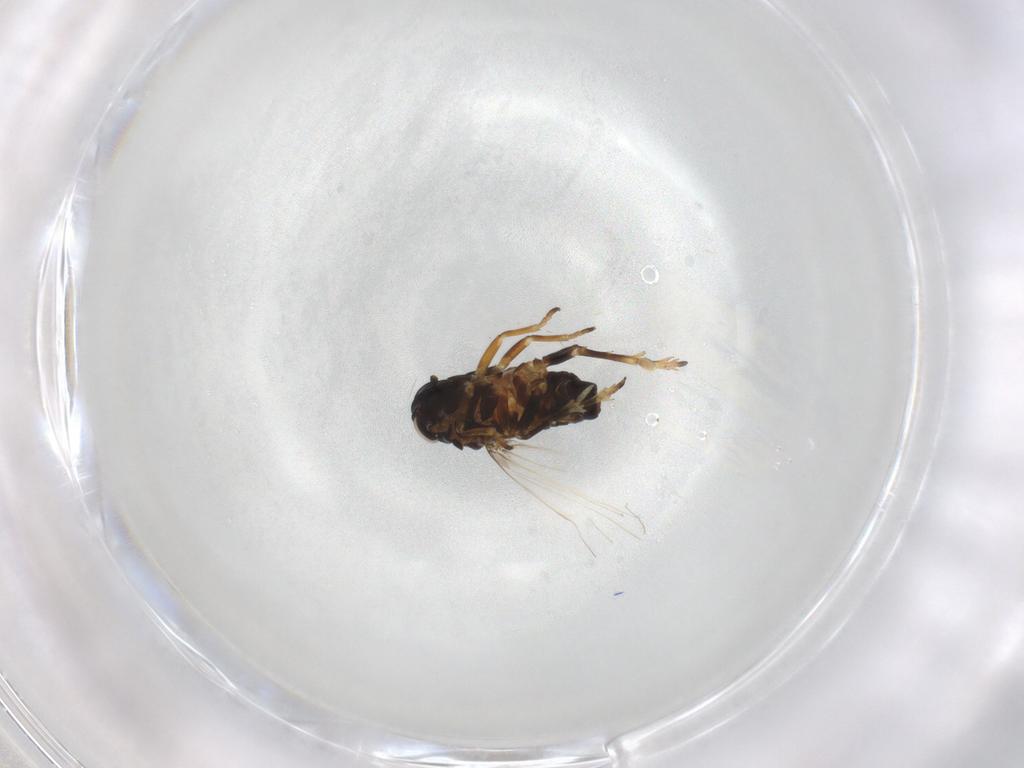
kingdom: Animalia
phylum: Arthropoda
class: Insecta
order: Hemiptera
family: Delphacidae
